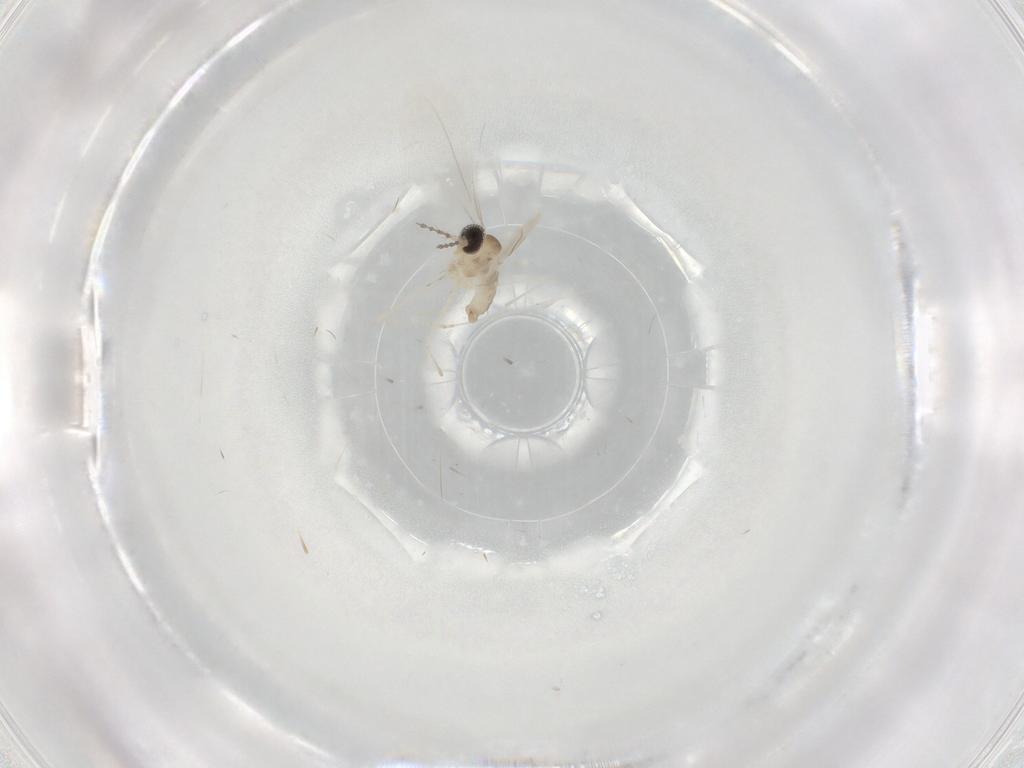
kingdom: Animalia
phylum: Arthropoda
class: Insecta
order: Diptera
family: Cecidomyiidae
